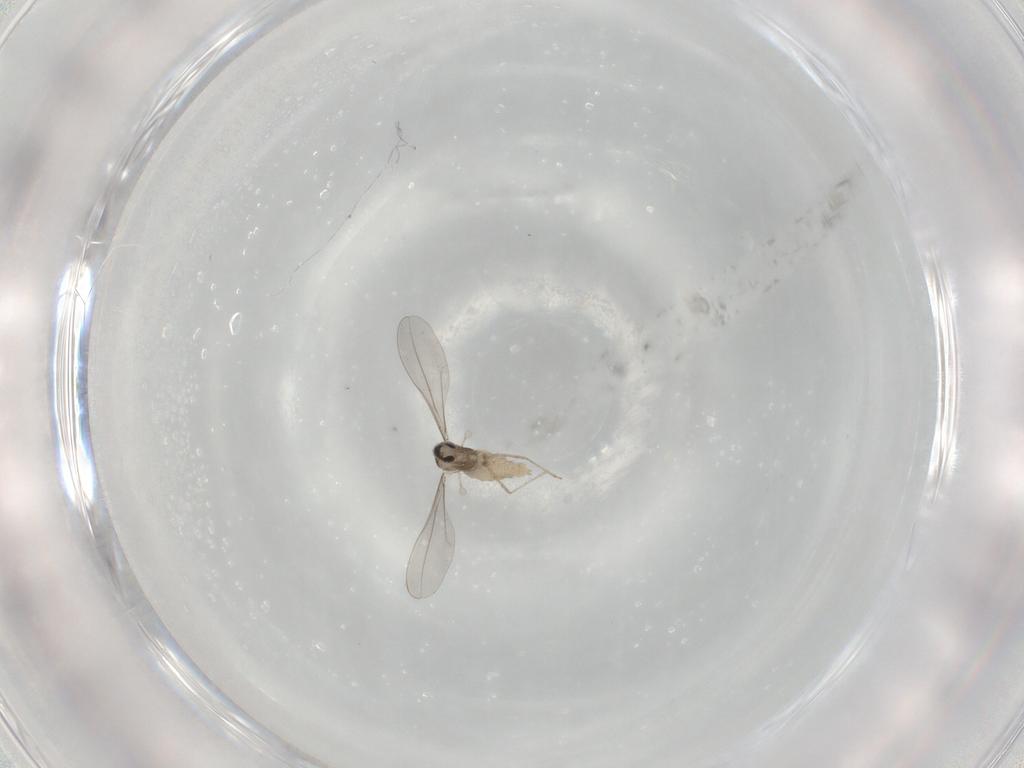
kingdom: Animalia
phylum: Arthropoda
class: Insecta
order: Diptera
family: Cecidomyiidae
